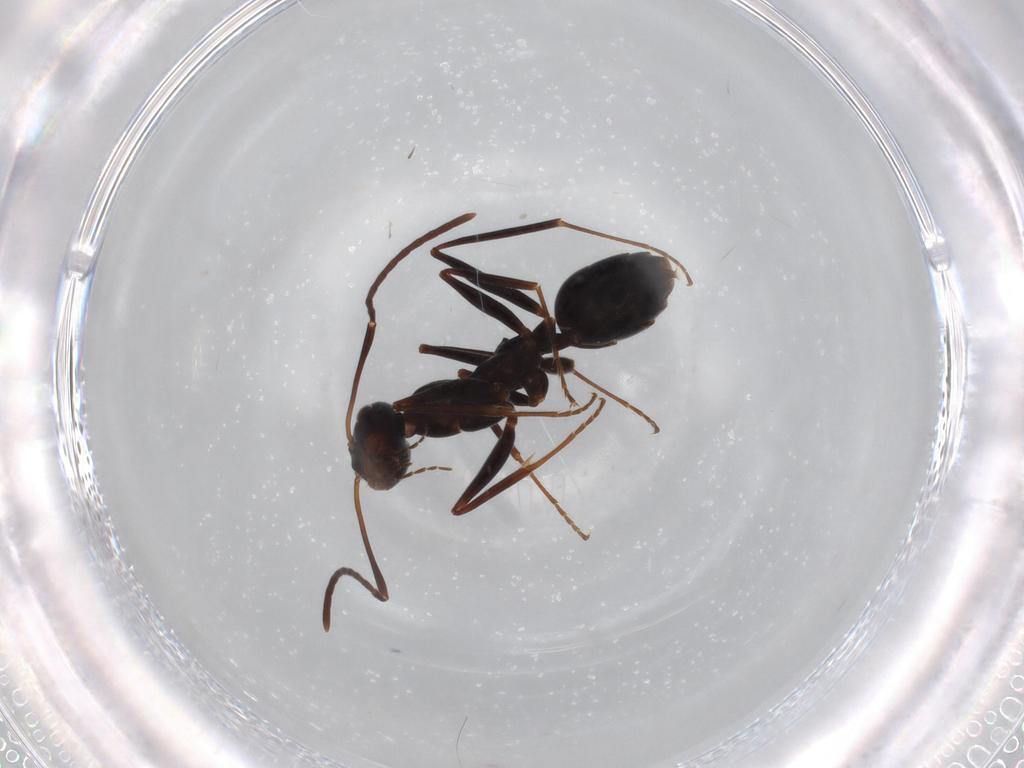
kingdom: Animalia
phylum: Arthropoda
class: Insecta
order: Hymenoptera
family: Formicidae
